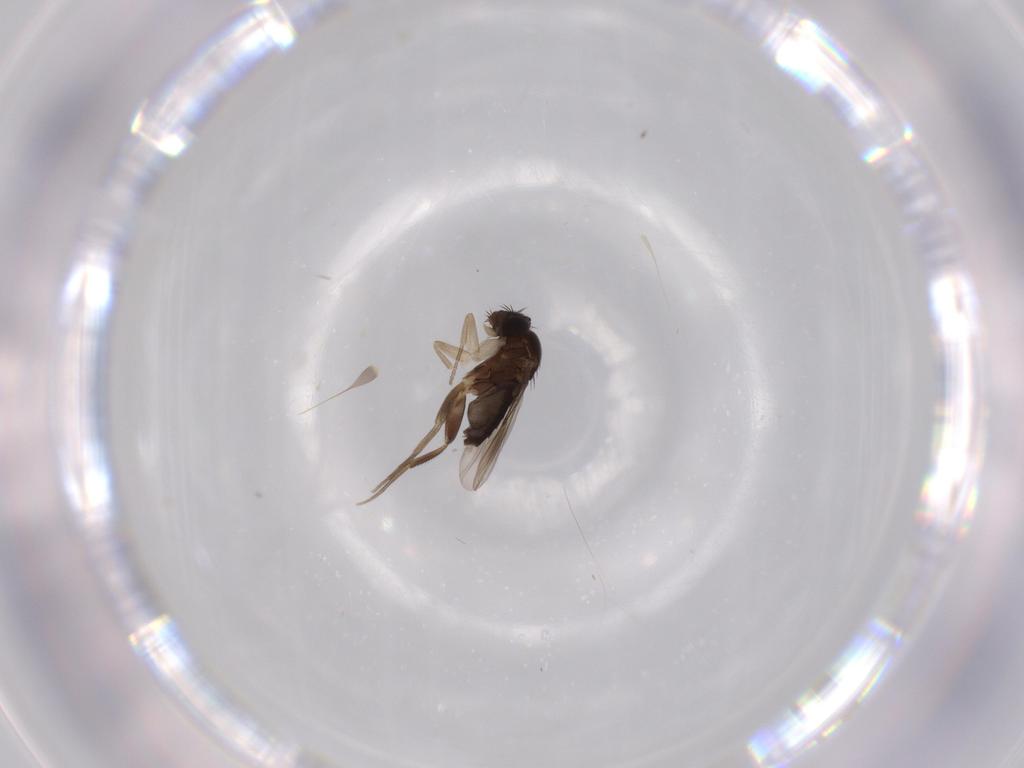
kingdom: Animalia
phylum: Arthropoda
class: Insecta
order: Diptera
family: Phoridae
